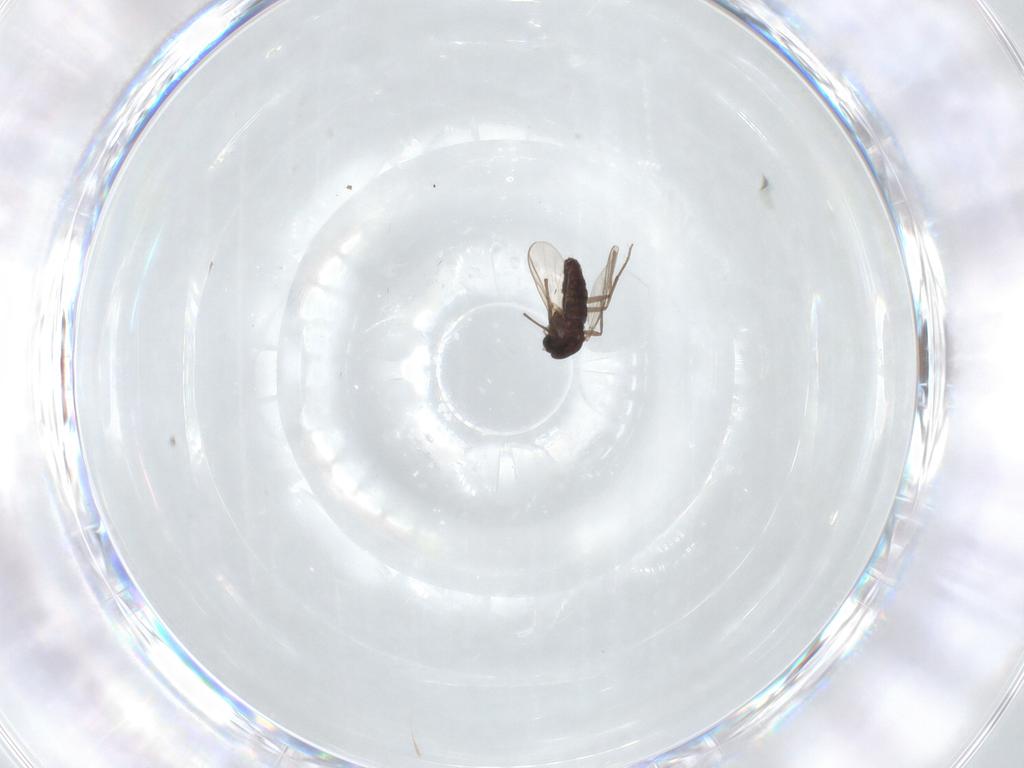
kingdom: Animalia
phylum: Arthropoda
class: Insecta
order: Diptera
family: Chironomidae
